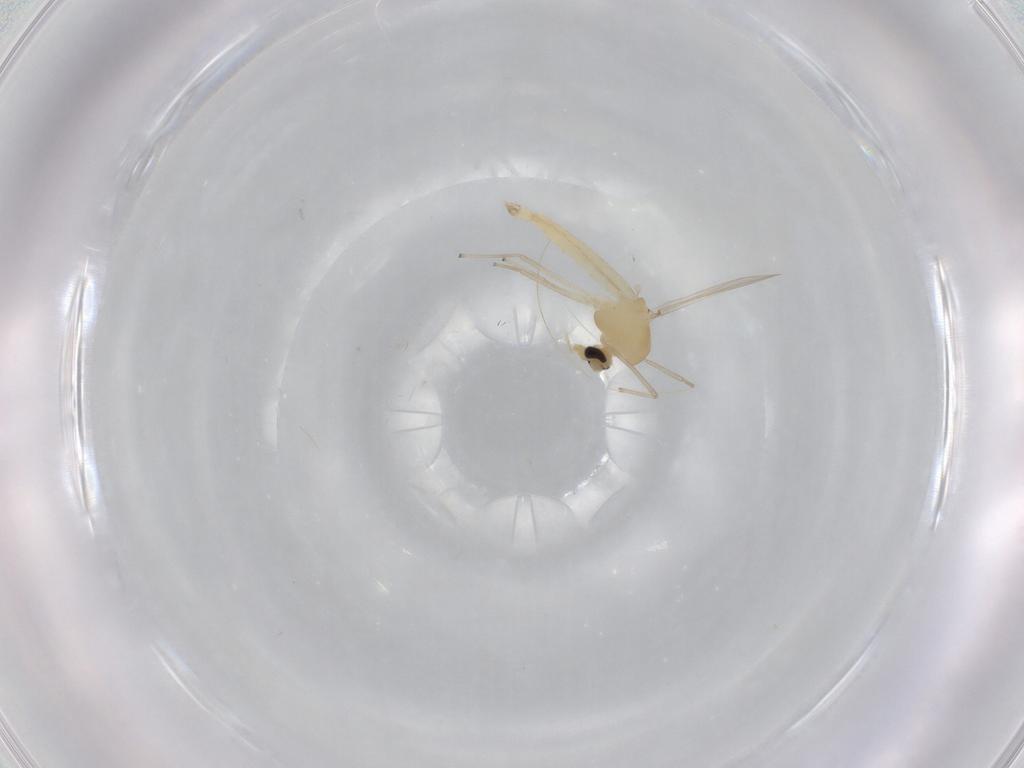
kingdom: Animalia
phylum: Arthropoda
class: Insecta
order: Diptera
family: Chironomidae
